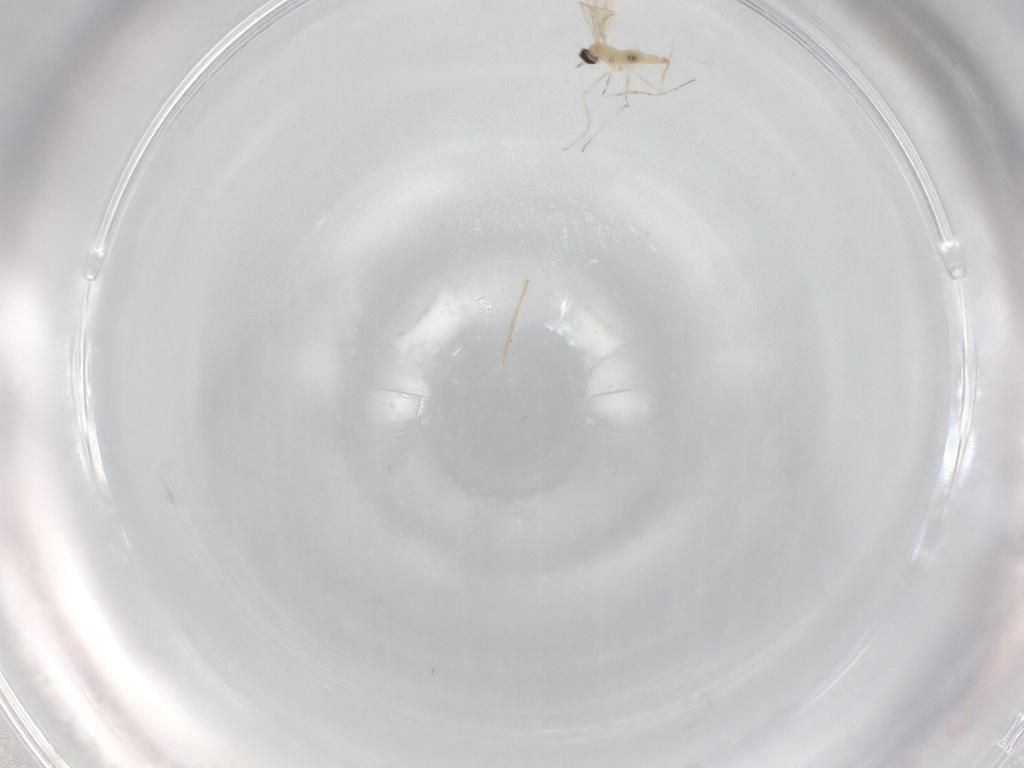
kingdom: Animalia
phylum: Arthropoda
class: Insecta
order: Diptera
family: Cecidomyiidae
